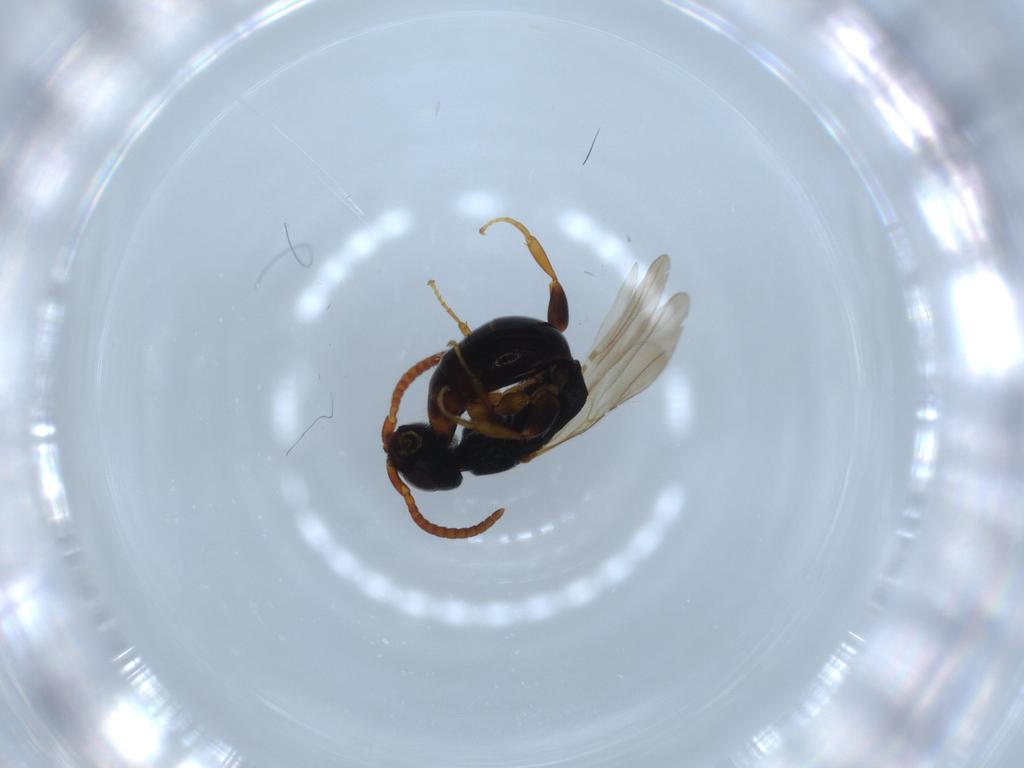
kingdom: Animalia
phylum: Arthropoda
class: Insecta
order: Hymenoptera
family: Bethylidae
